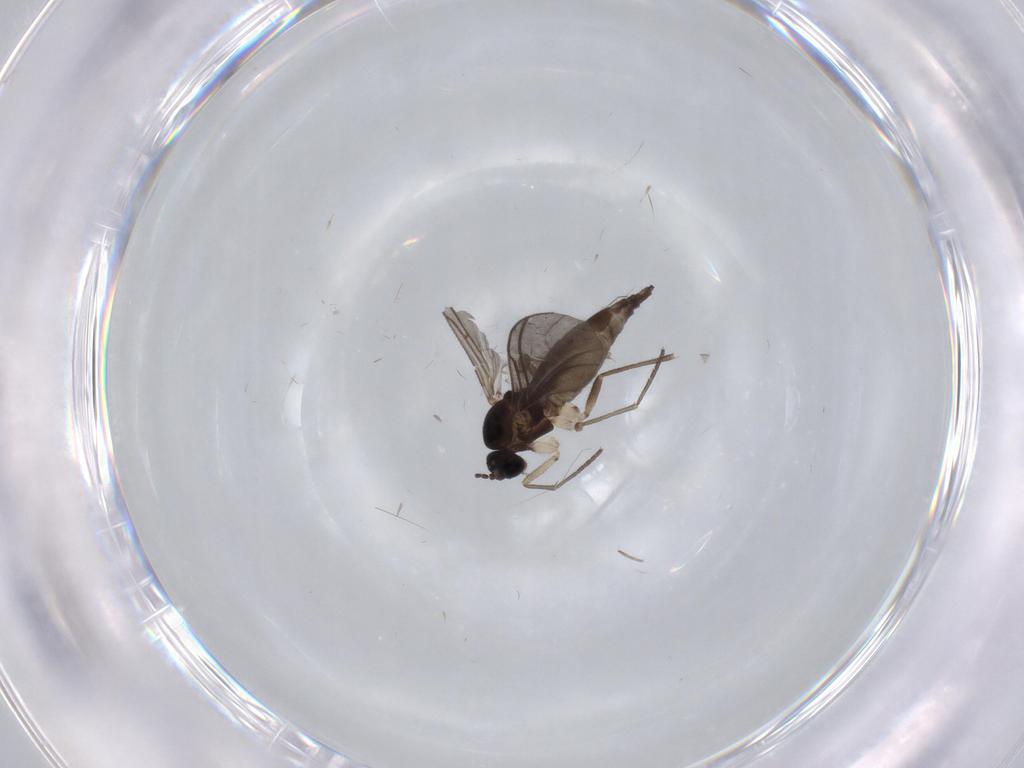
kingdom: Animalia
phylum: Arthropoda
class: Insecta
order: Diptera
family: Sciaridae
